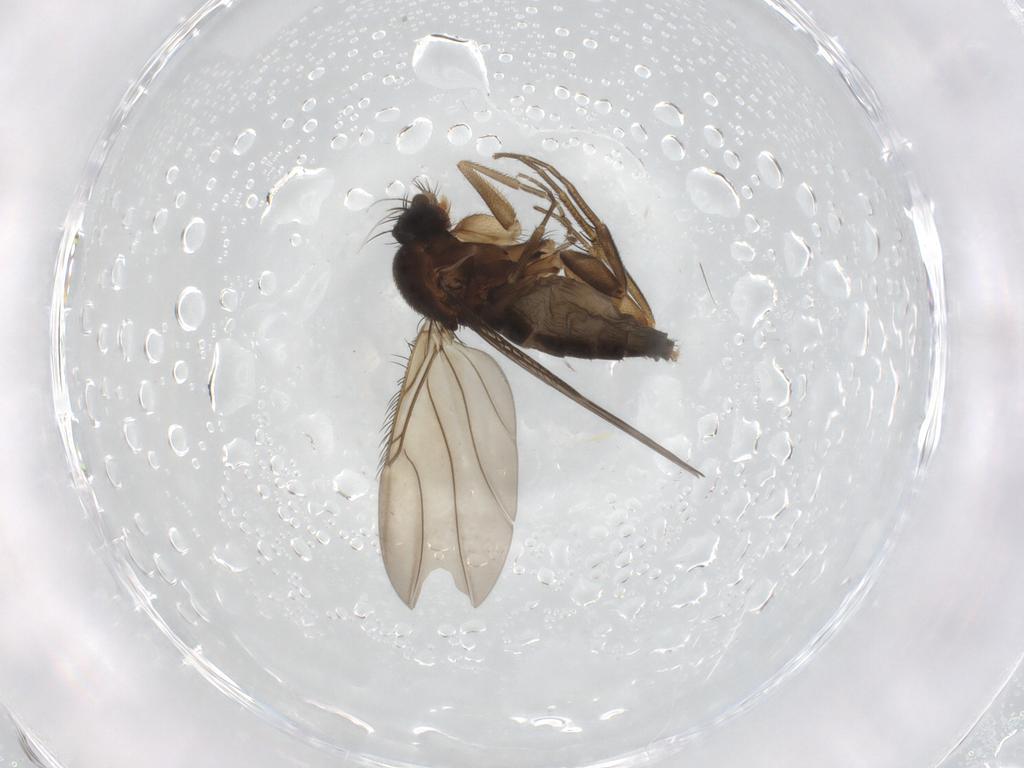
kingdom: Animalia
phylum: Arthropoda
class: Insecta
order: Diptera
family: Phoridae
